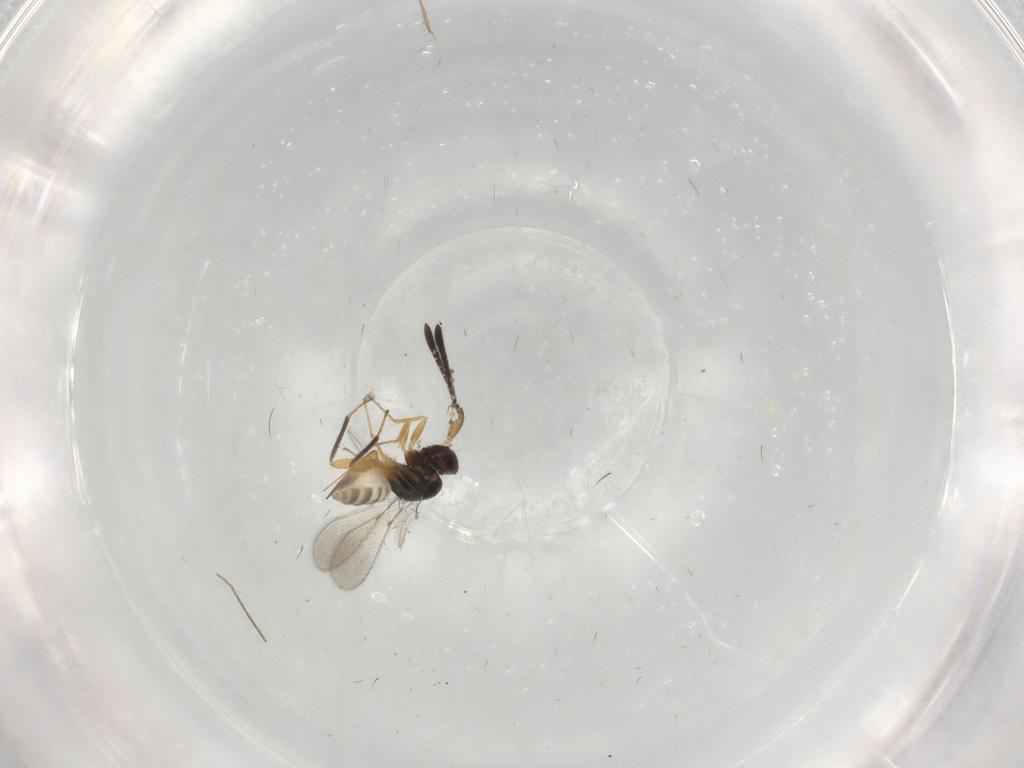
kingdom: Animalia
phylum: Arthropoda
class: Insecta
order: Hymenoptera
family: Mymaridae
